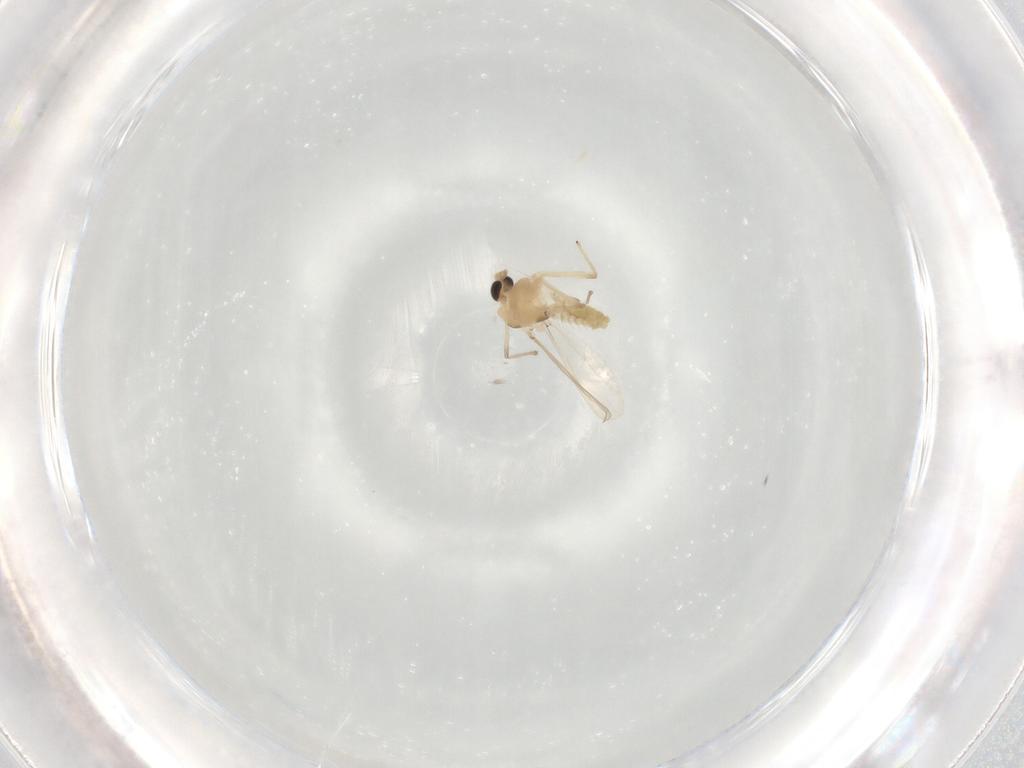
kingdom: Animalia
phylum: Arthropoda
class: Insecta
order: Diptera
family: Chironomidae
